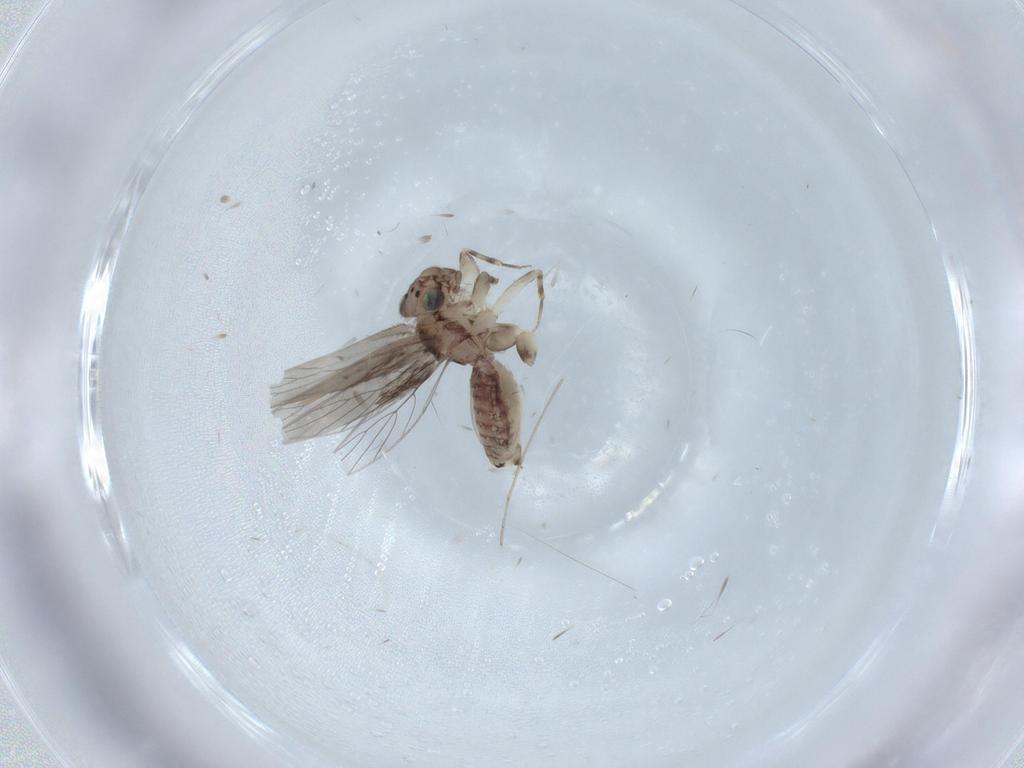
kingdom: Animalia
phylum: Arthropoda
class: Insecta
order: Psocodea
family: Lepidopsocidae
